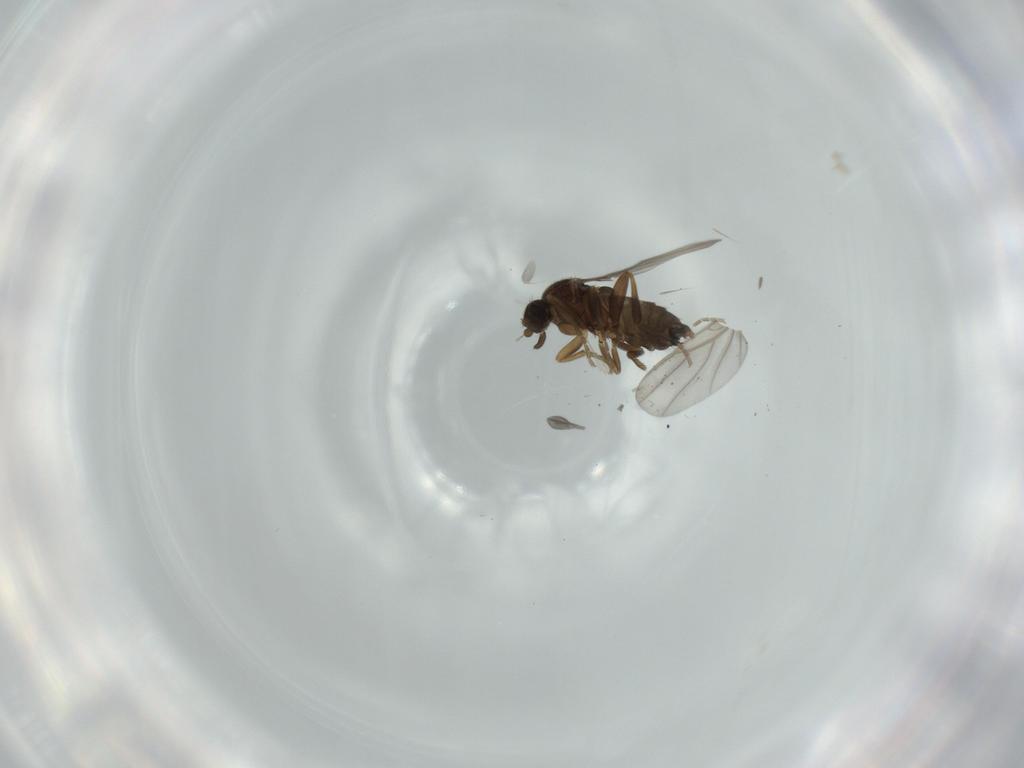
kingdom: Animalia
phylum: Arthropoda
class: Insecta
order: Diptera
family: Phoridae
